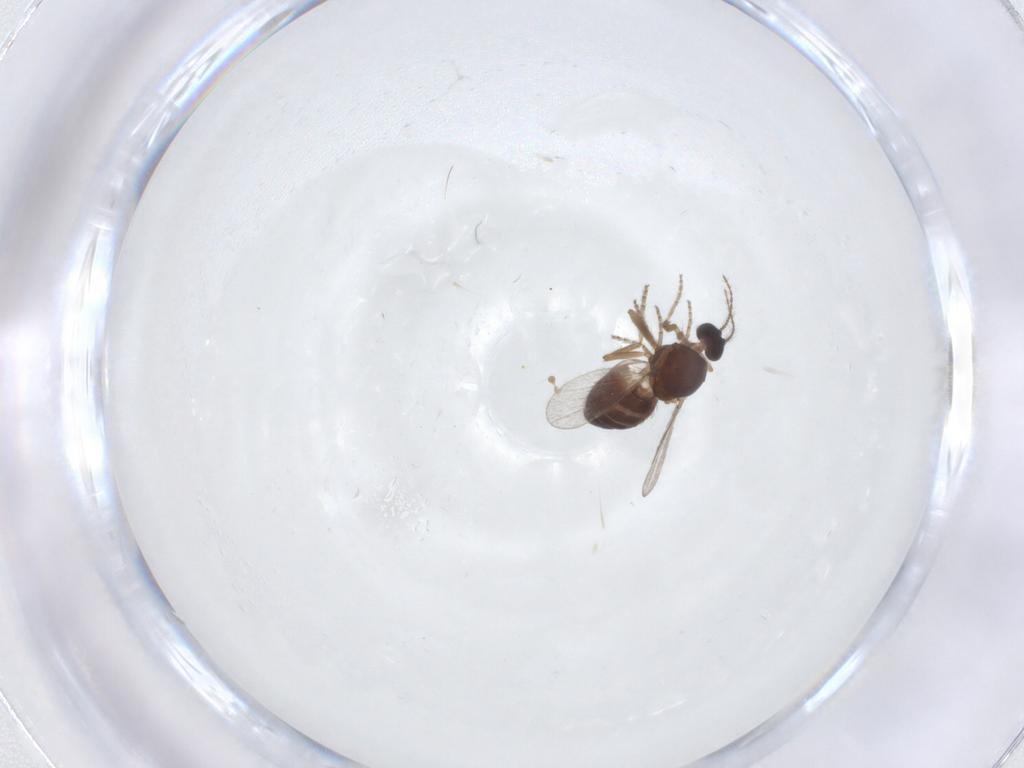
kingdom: Animalia
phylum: Arthropoda
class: Insecta
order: Diptera
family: Ceratopogonidae
